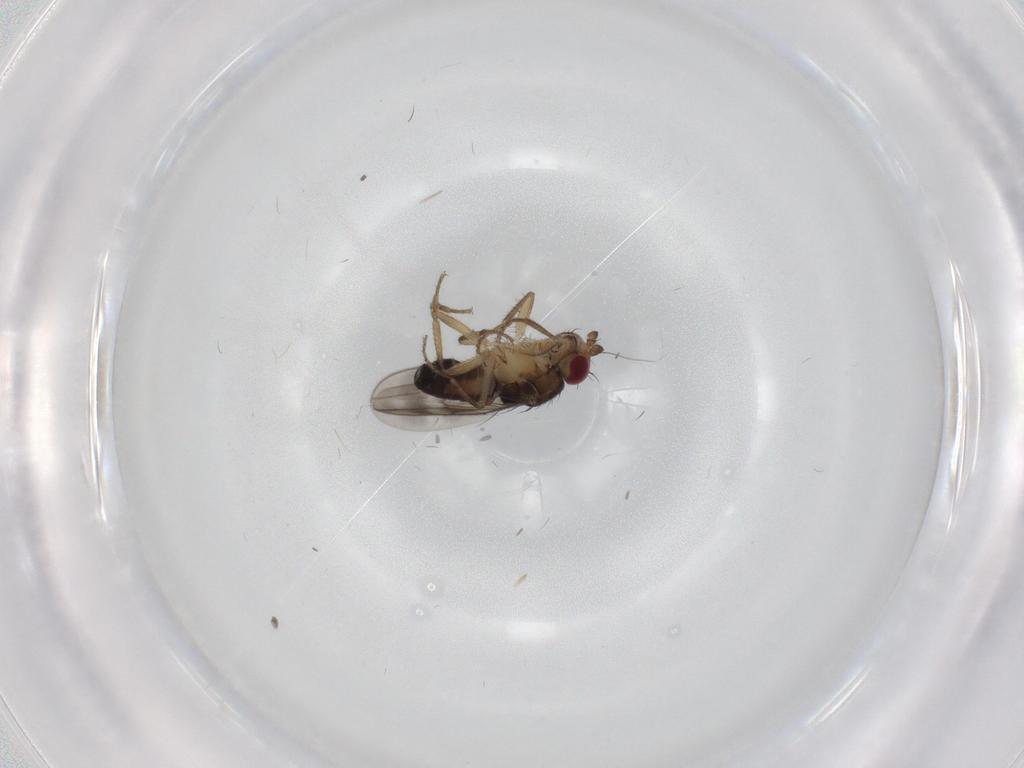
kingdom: Animalia
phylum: Arthropoda
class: Insecta
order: Diptera
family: Sphaeroceridae
